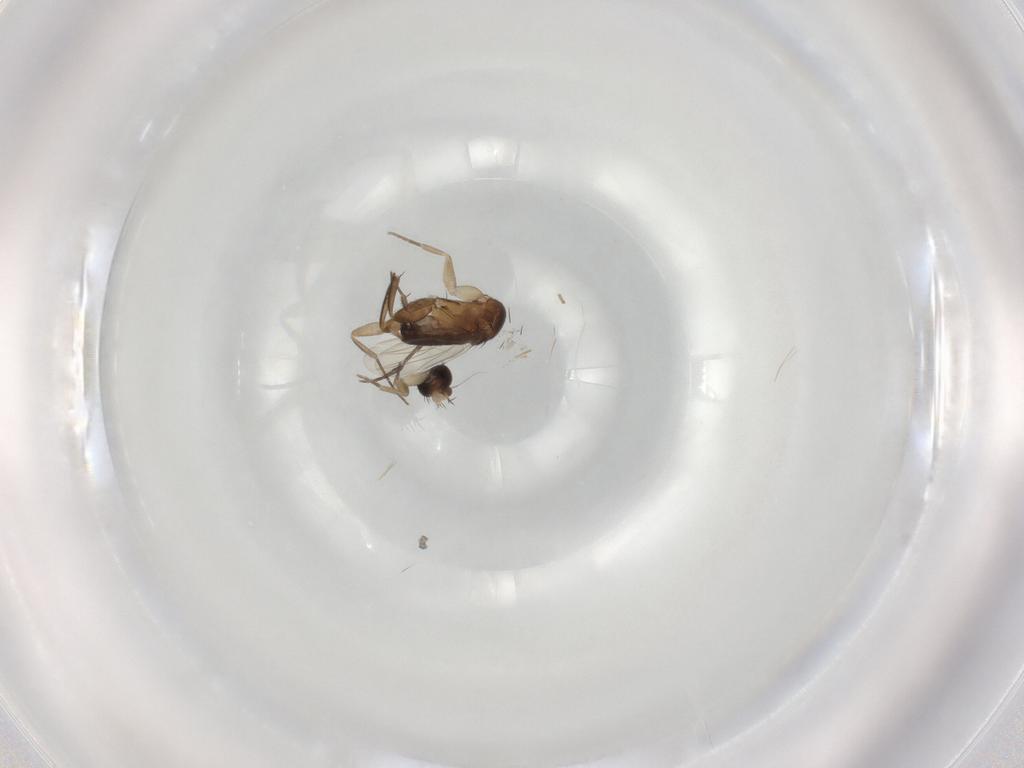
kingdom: Animalia
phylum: Arthropoda
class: Insecta
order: Diptera
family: Phoridae
